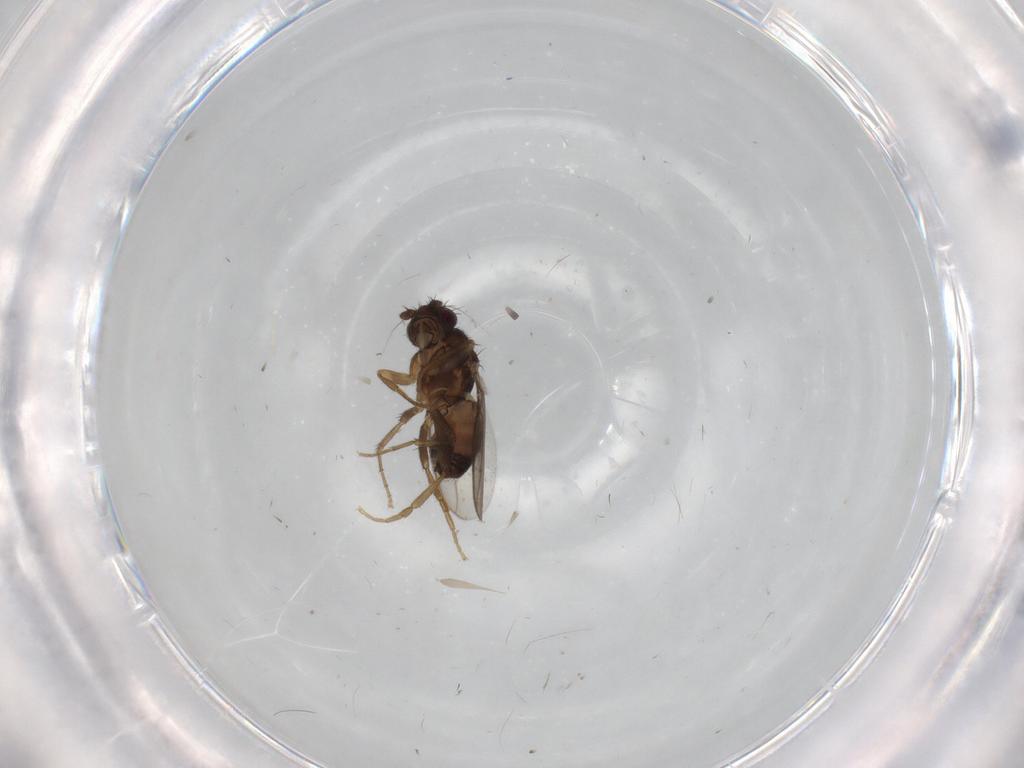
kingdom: Animalia
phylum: Arthropoda
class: Insecta
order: Diptera
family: Sphaeroceridae
